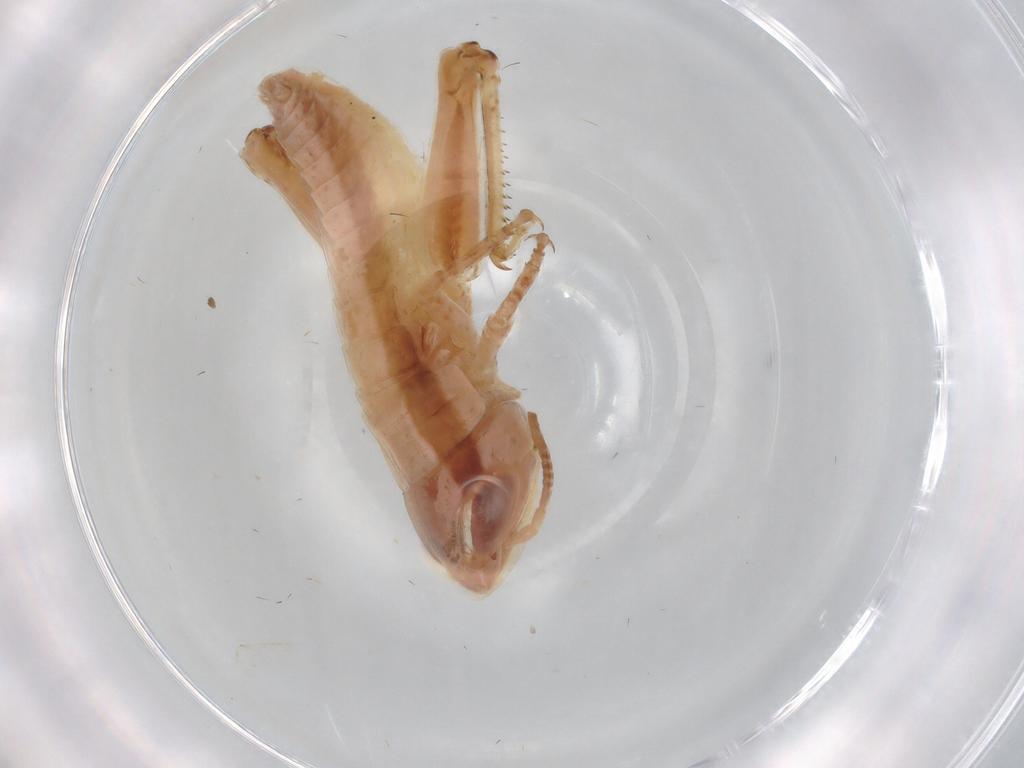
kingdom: Animalia
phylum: Arthropoda
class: Insecta
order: Orthoptera
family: Acrididae
